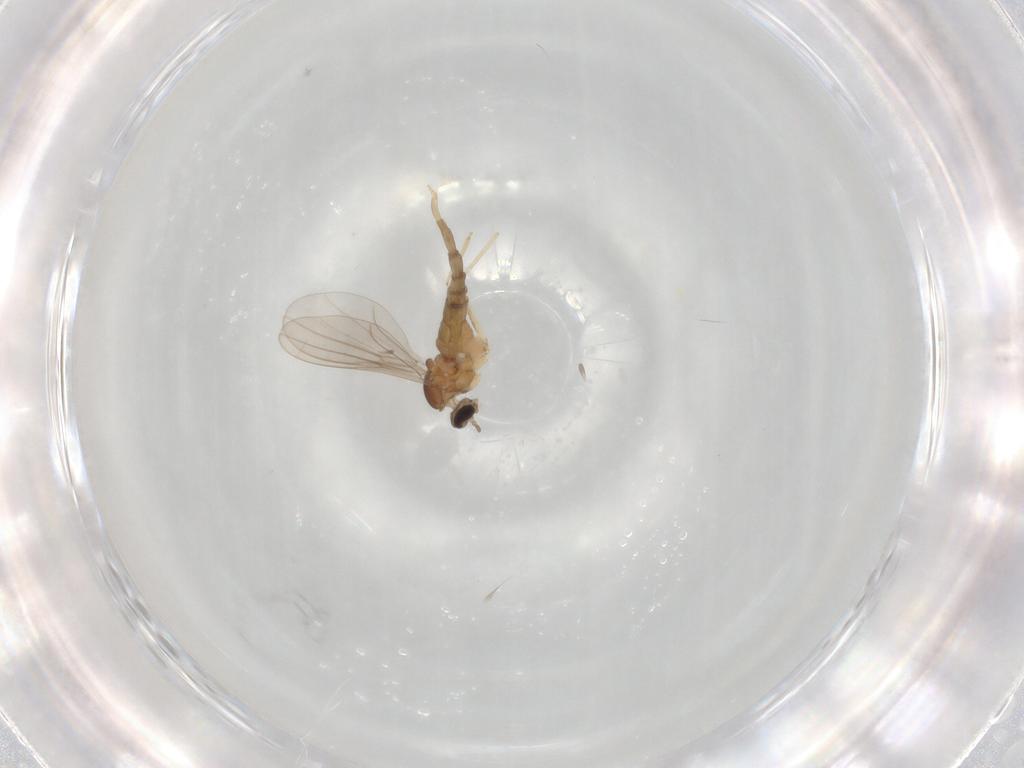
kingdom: Animalia
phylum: Arthropoda
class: Insecta
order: Diptera
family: Cecidomyiidae
